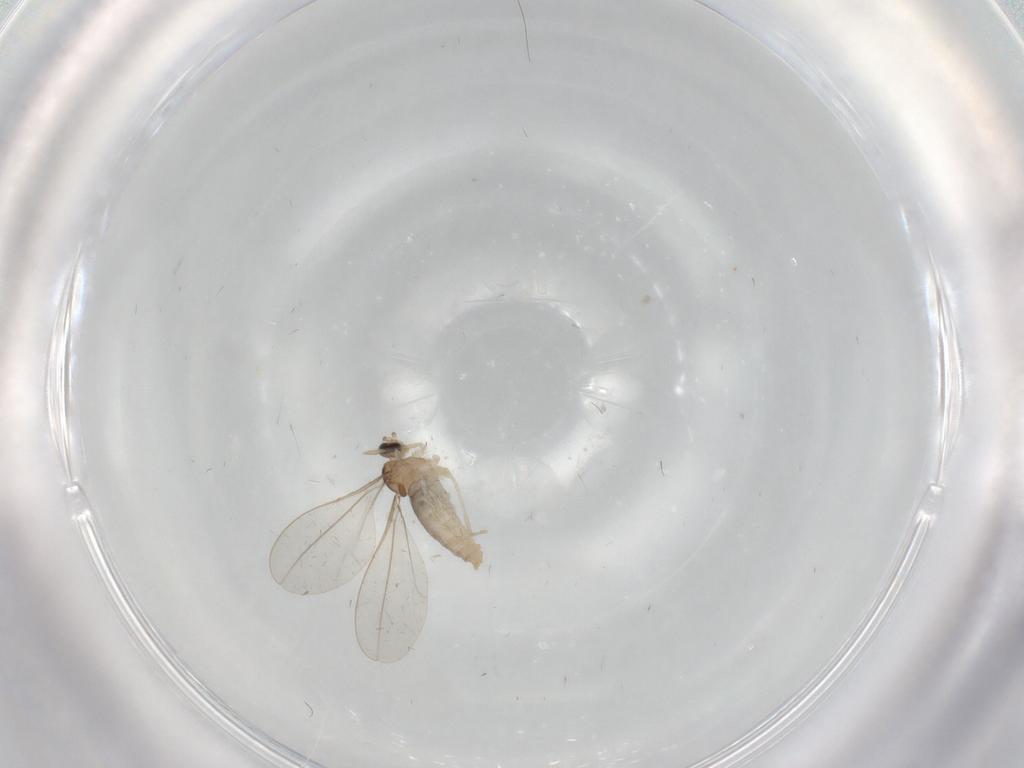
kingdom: Animalia
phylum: Arthropoda
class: Insecta
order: Diptera
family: Cecidomyiidae
